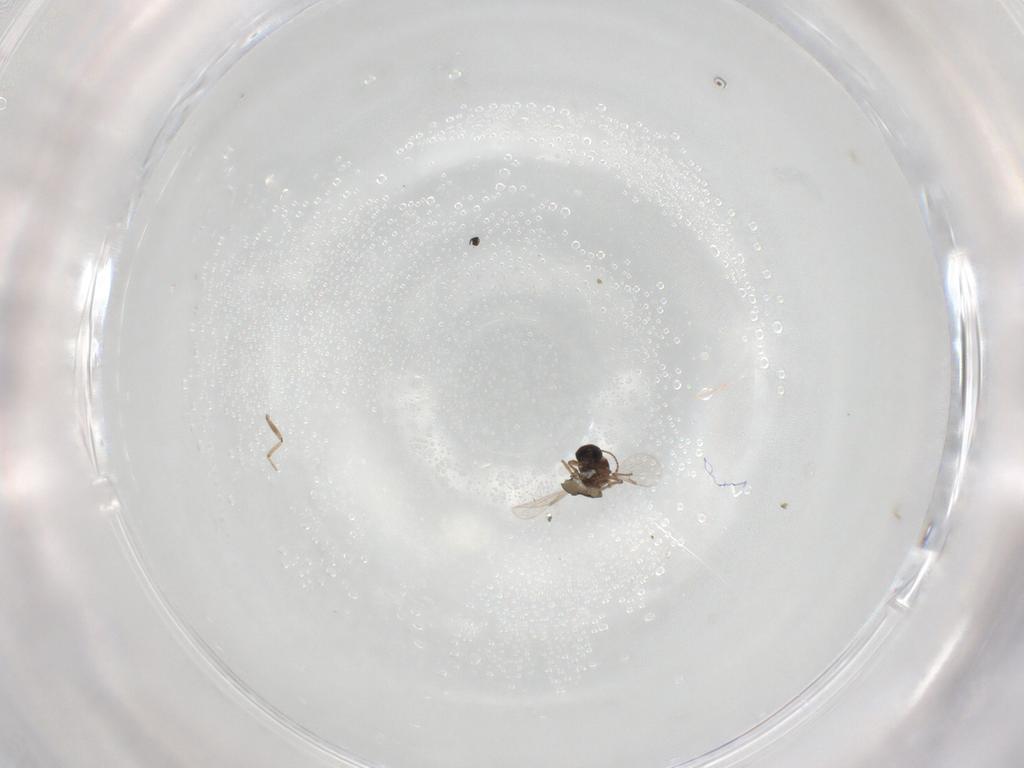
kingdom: Animalia
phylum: Arthropoda
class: Insecta
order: Diptera
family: Ceratopogonidae
